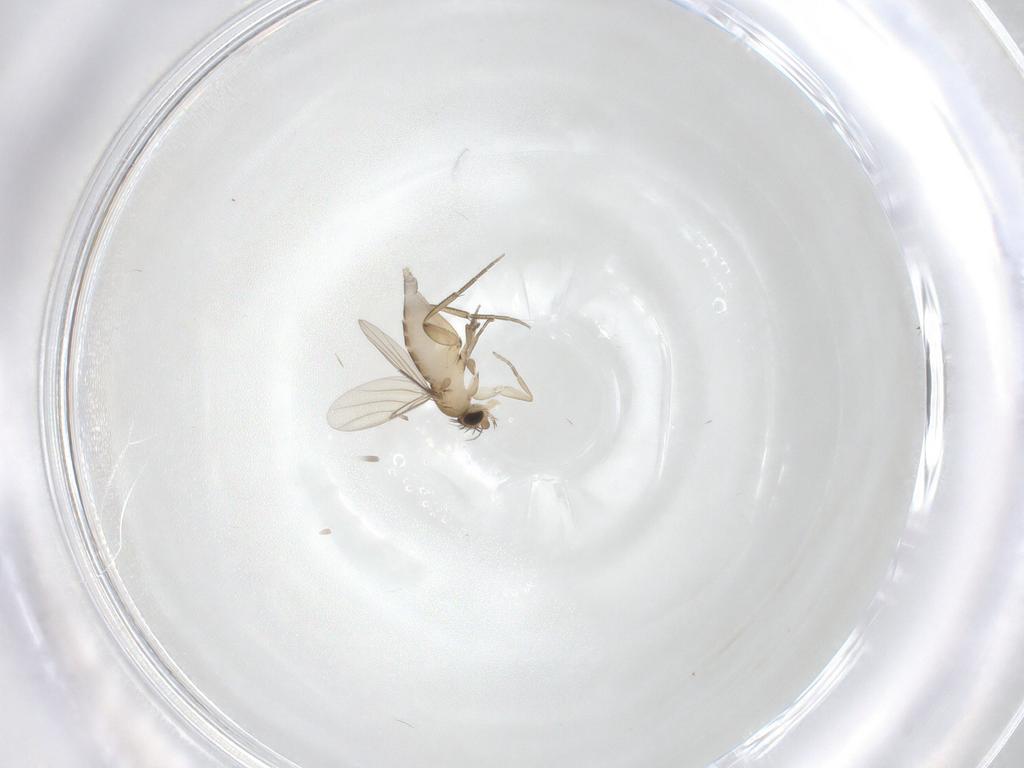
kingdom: Animalia
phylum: Arthropoda
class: Insecta
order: Diptera
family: Phoridae
